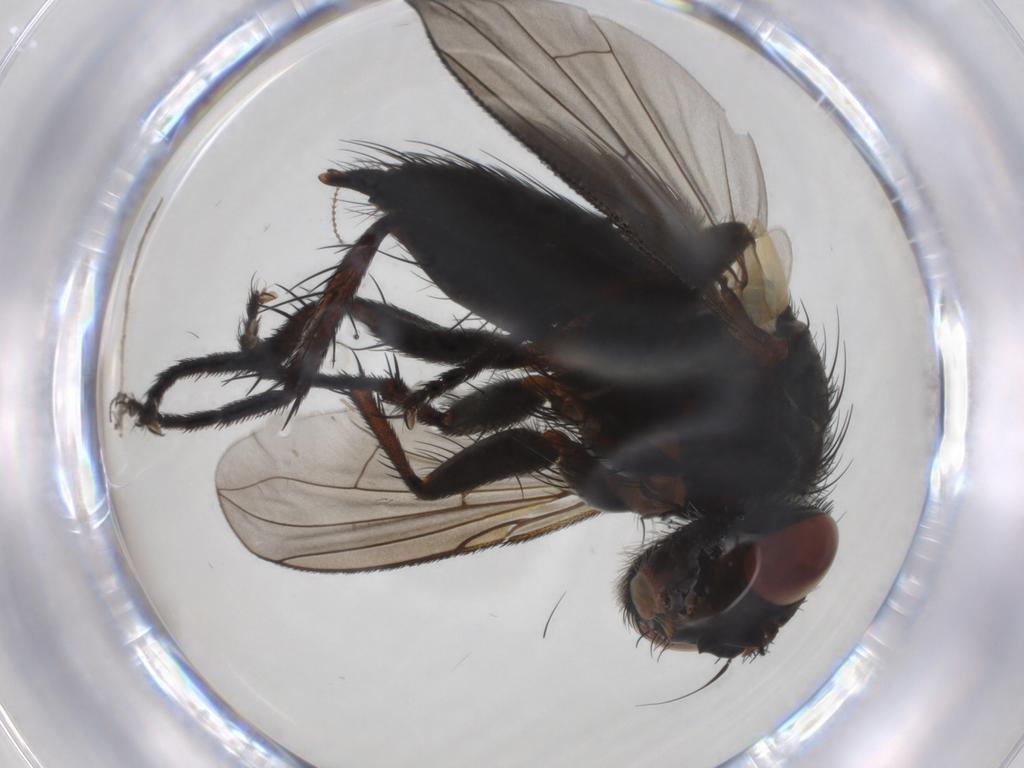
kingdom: Animalia
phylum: Arthropoda
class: Insecta
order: Diptera
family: Tachinidae
